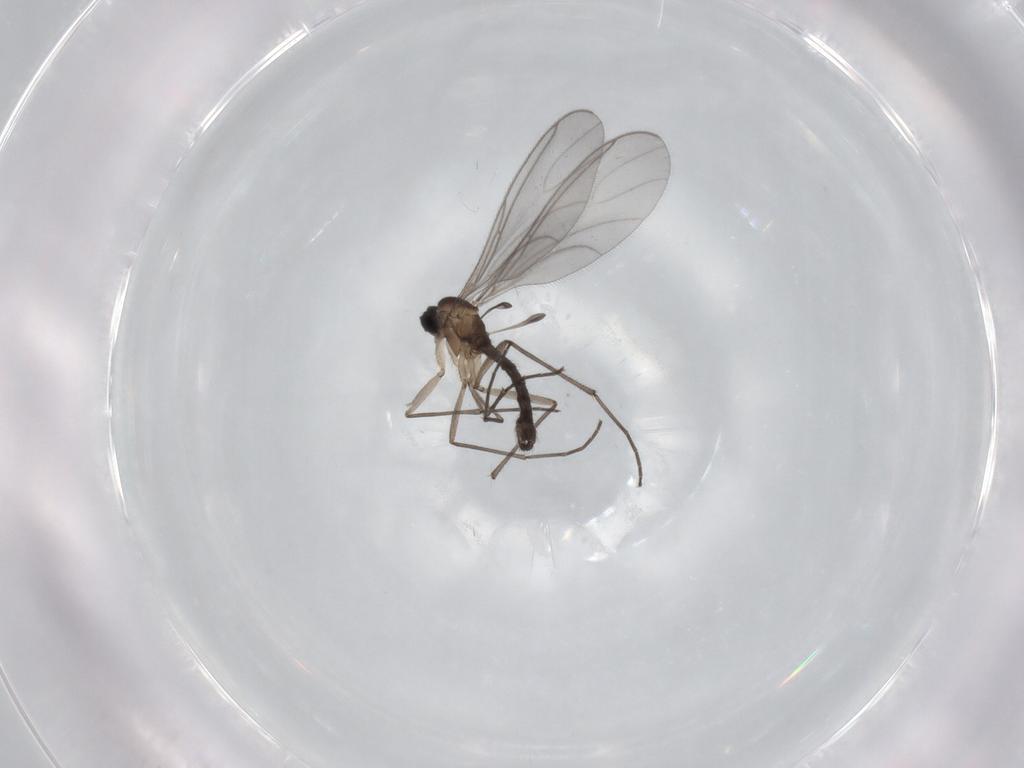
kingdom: Animalia
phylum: Arthropoda
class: Insecta
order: Diptera
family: Sciaridae
